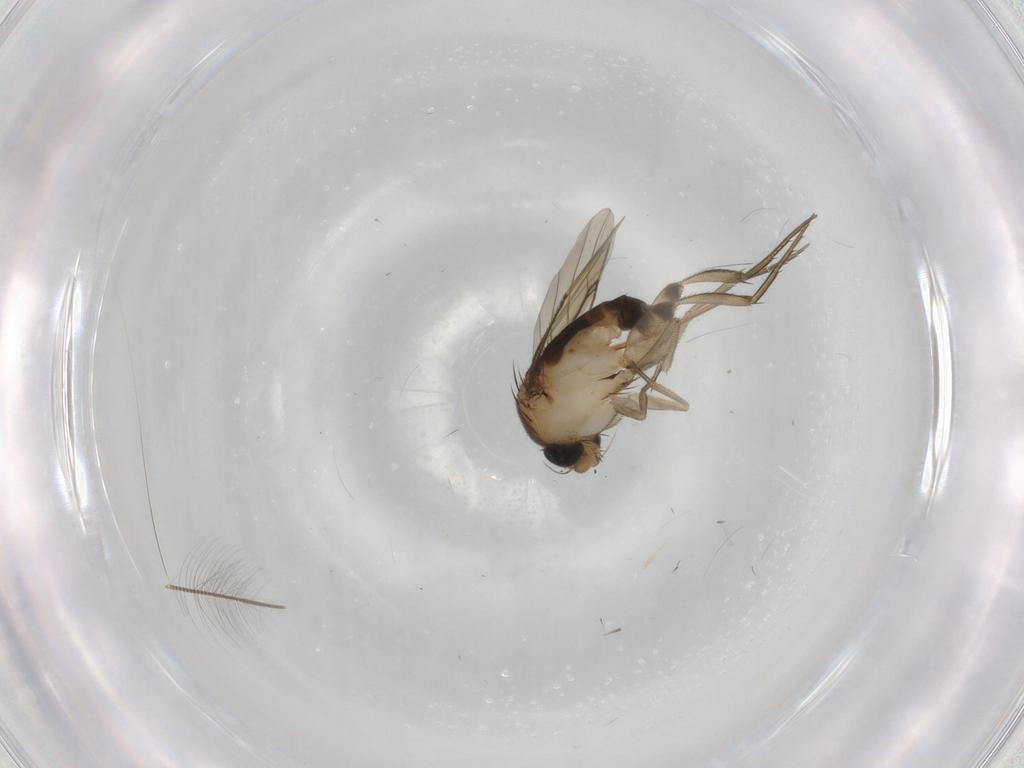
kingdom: Animalia
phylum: Arthropoda
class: Insecta
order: Diptera
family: Phoridae
